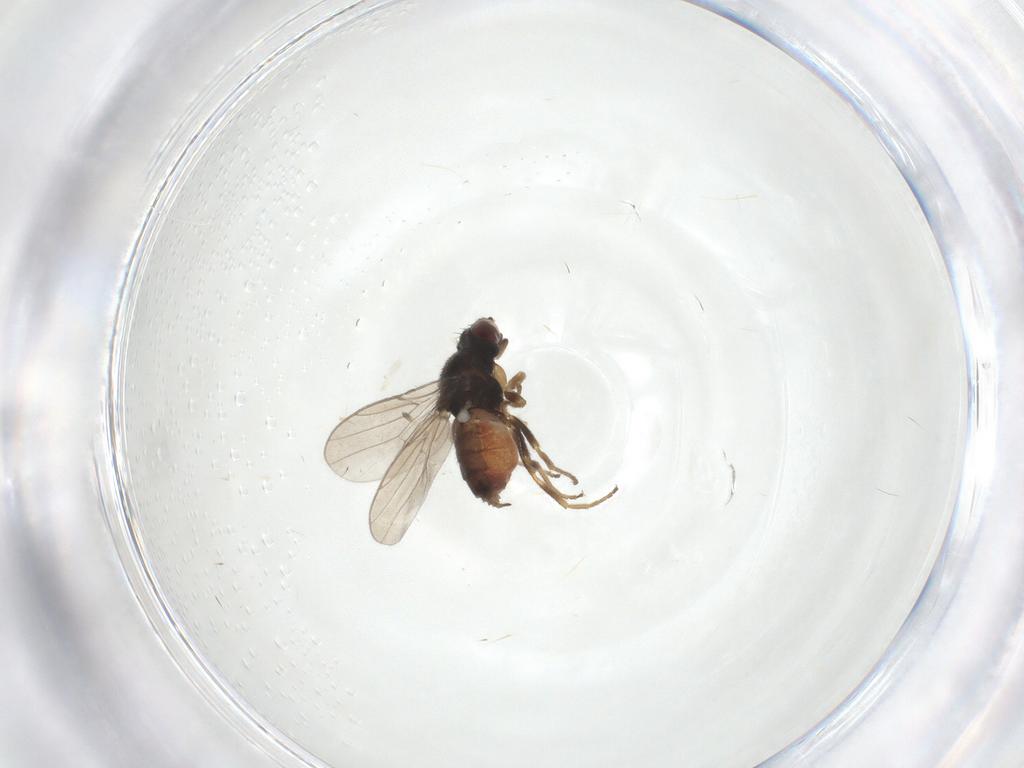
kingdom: Animalia
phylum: Arthropoda
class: Insecta
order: Diptera
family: Chloropidae
